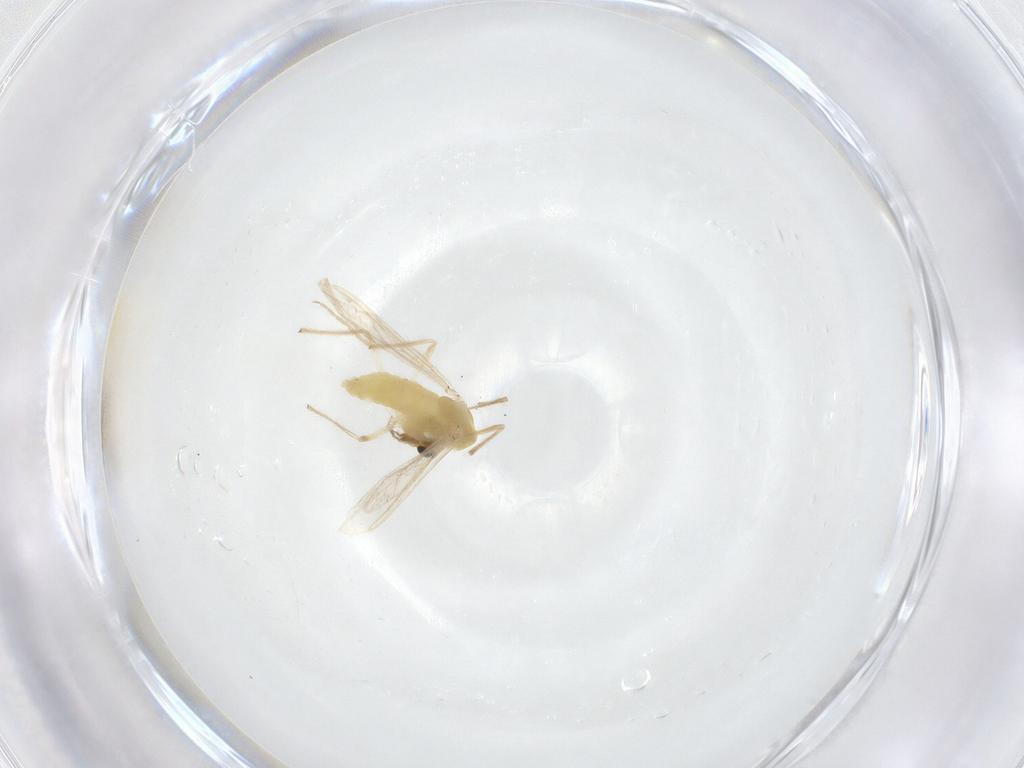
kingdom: Animalia
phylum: Arthropoda
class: Insecta
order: Diptera
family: Chironomidae
